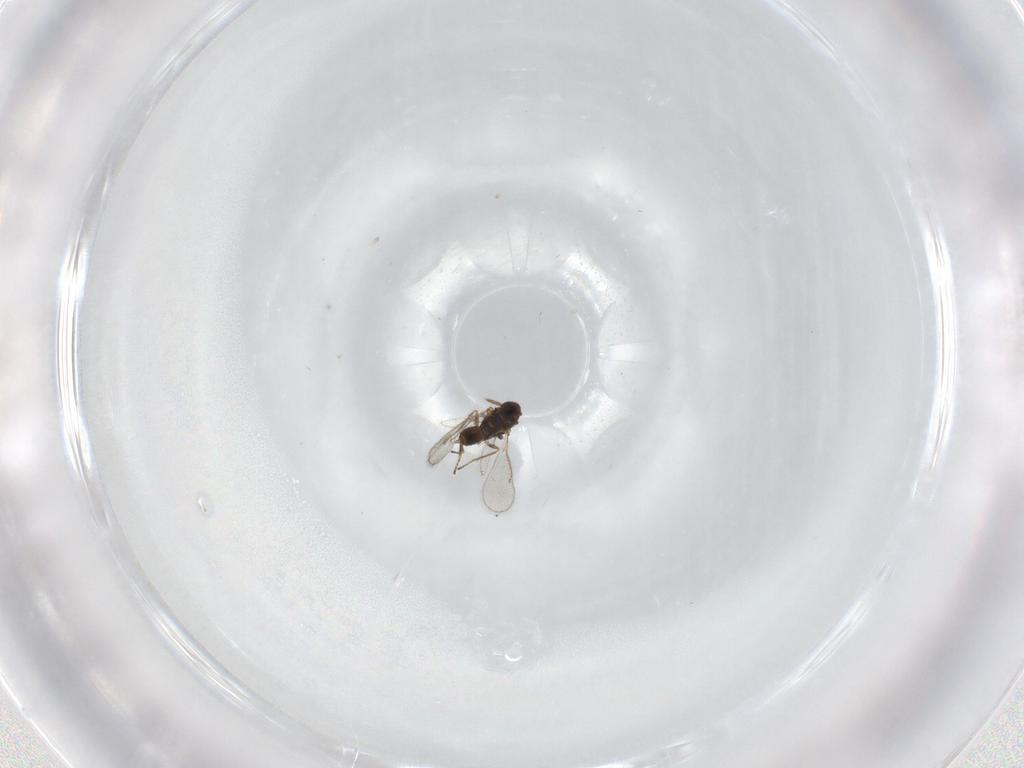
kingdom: Animalia
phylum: Arthropoda
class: Insecta
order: Hymenoptera
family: Eulophidae
